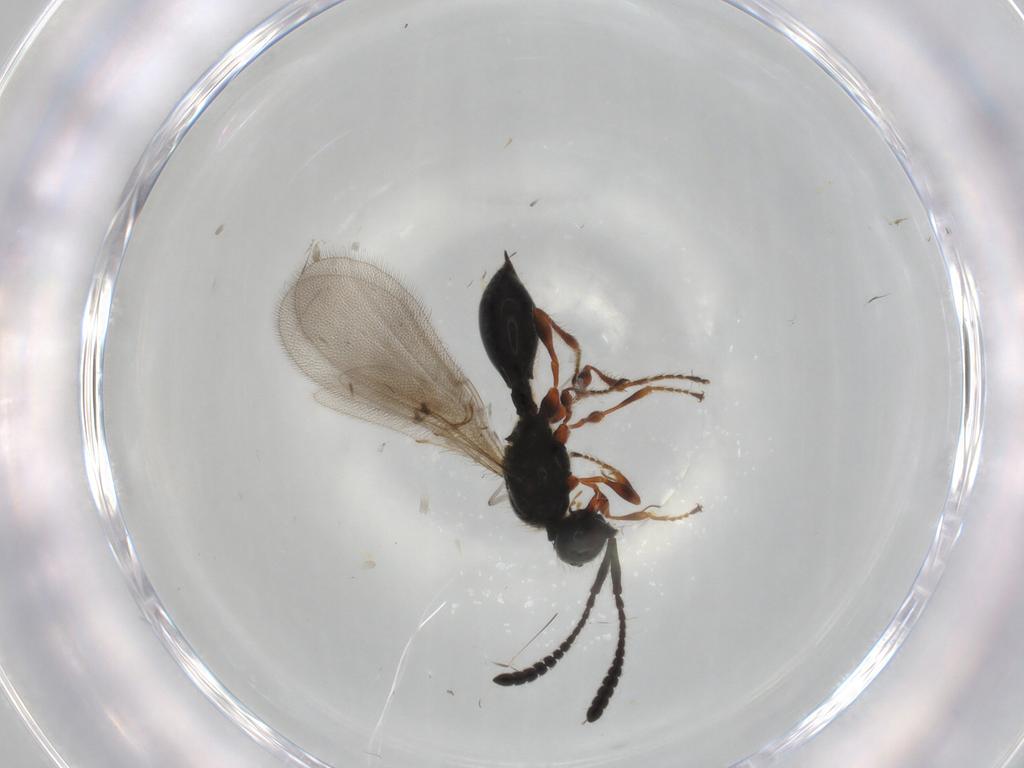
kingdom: Animalia
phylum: Arthropoda
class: Insecta
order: Hymenoptera
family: Diapriidae
